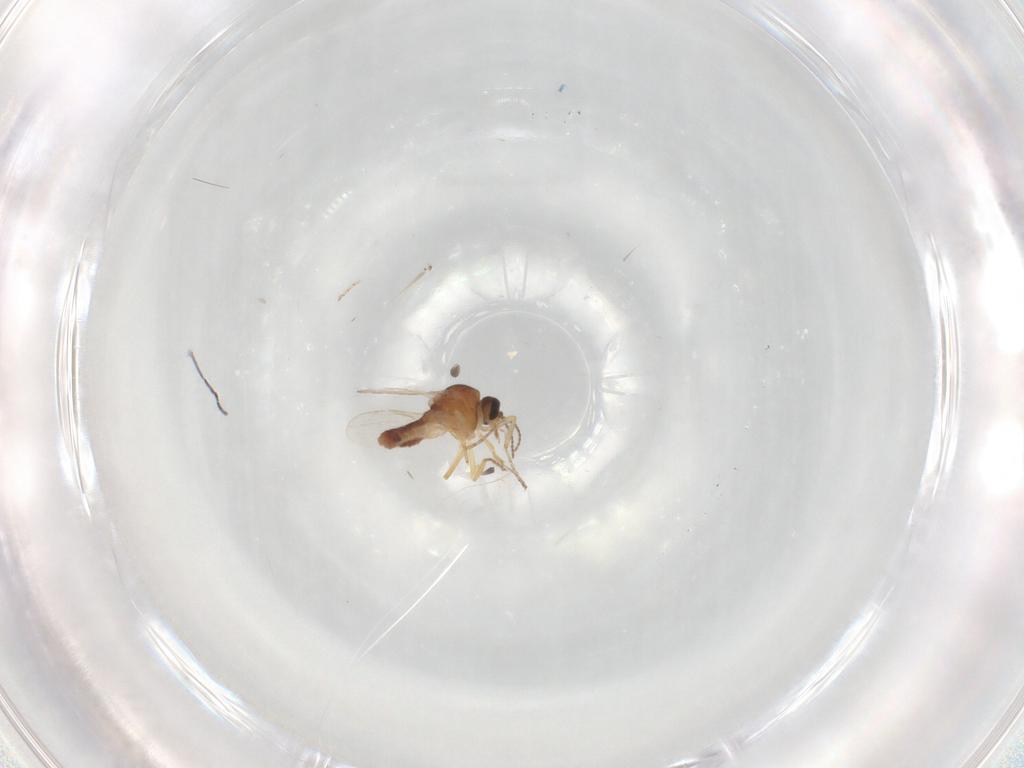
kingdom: Animalia
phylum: Arthropoda
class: Insecta
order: Diptera
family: Ceratopogonidae
